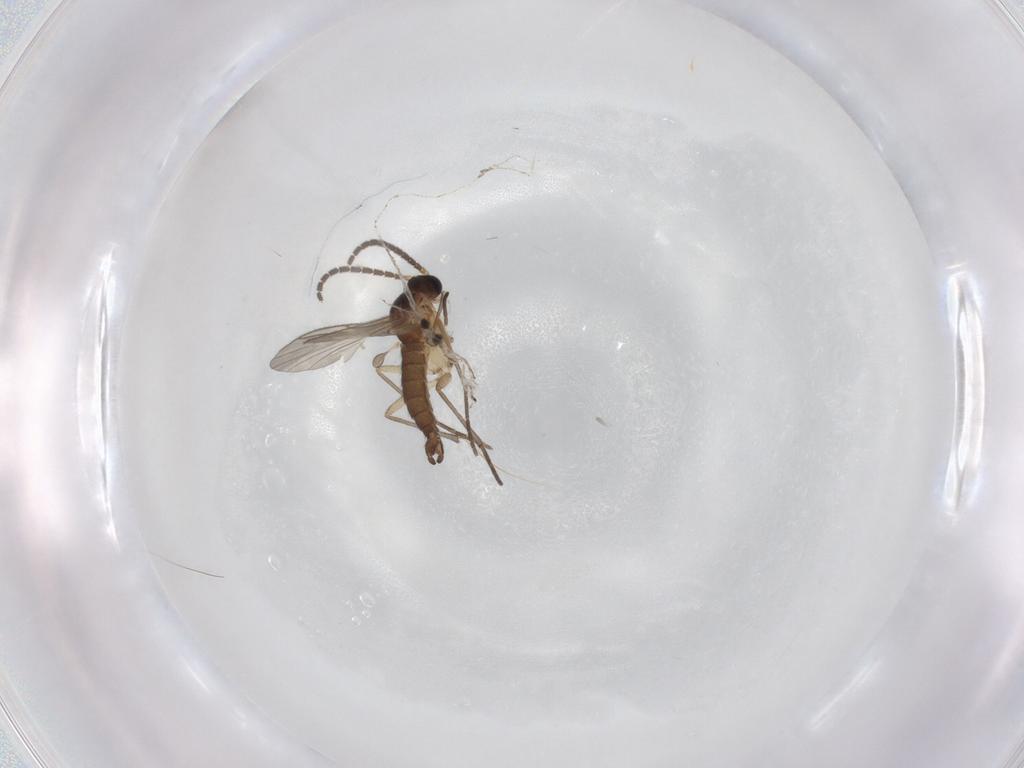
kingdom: Animalia
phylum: Arthropoda
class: Insecta
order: Diptera
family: Sciaridae
